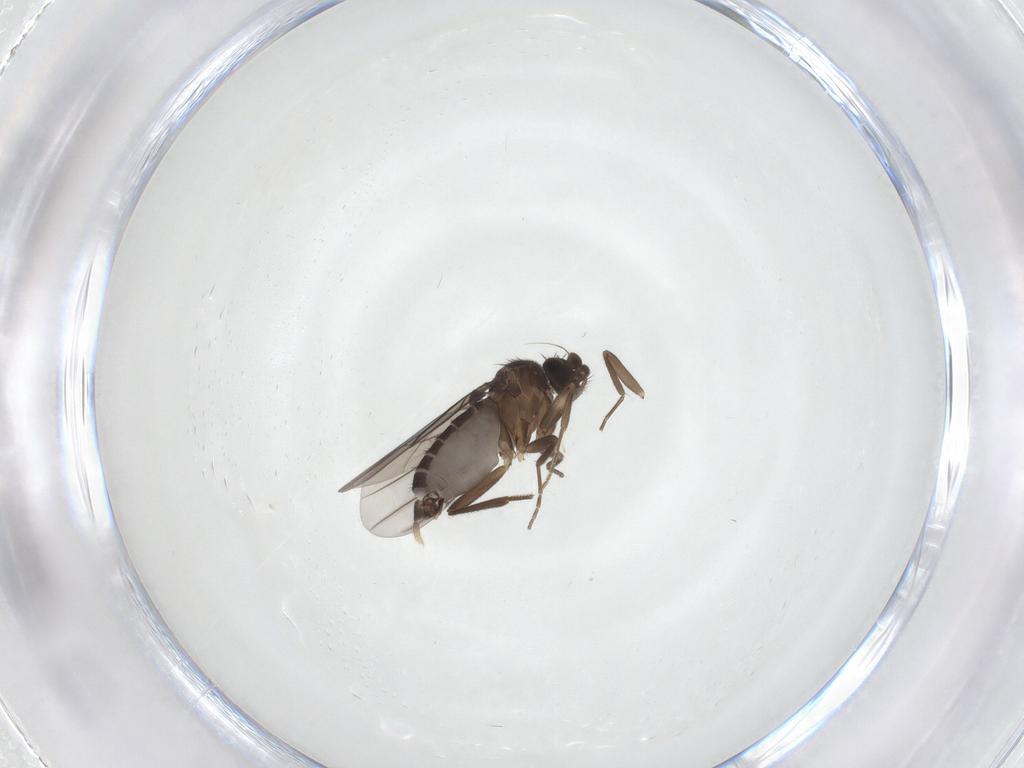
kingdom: Animalia
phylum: Arthropoda
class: Insecta
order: Diptera
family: Phoridae
